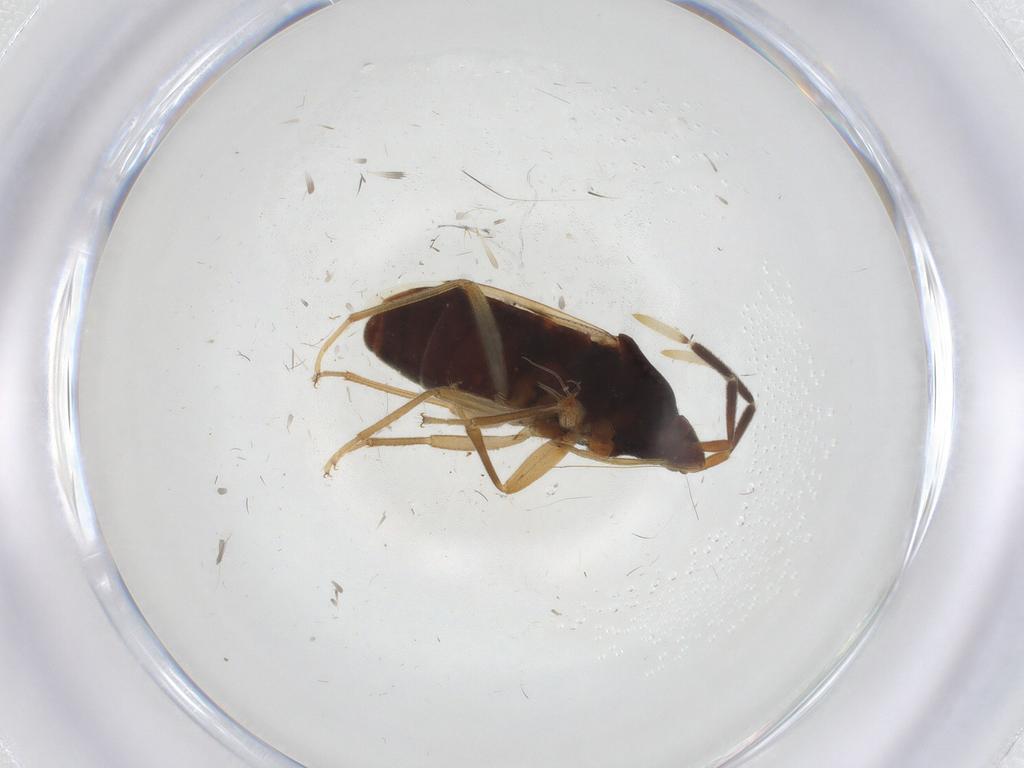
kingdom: Animalia
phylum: Arthropoda
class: Insecta
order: Hemiptera
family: Rhyparochromidae
